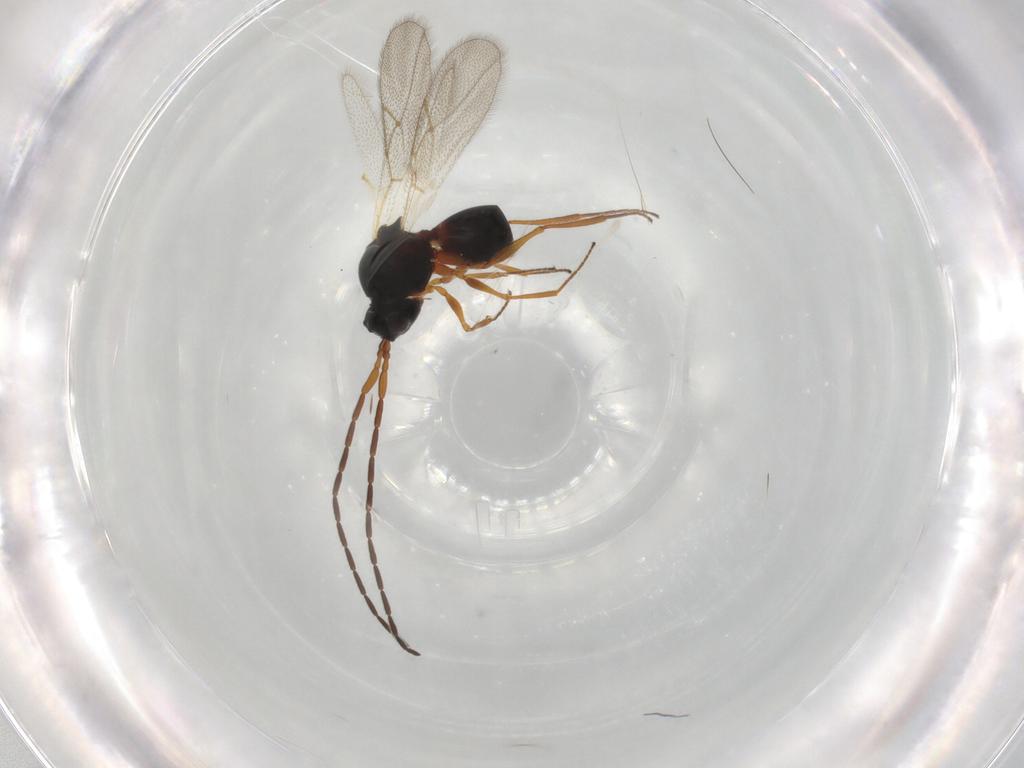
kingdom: Animalia
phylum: Arthropoda
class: Insecta
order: Hymenoptera
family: Figitidae
